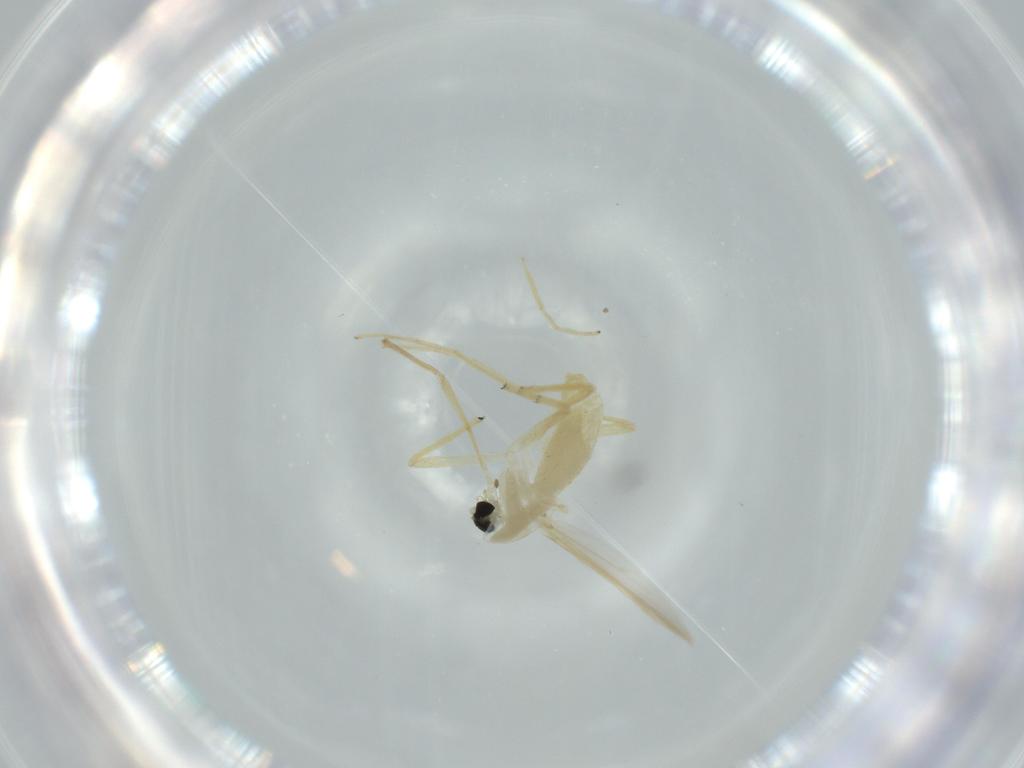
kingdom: Animalia
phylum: Arthropoda
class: Insecta
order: Diptera
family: Chironomidae
